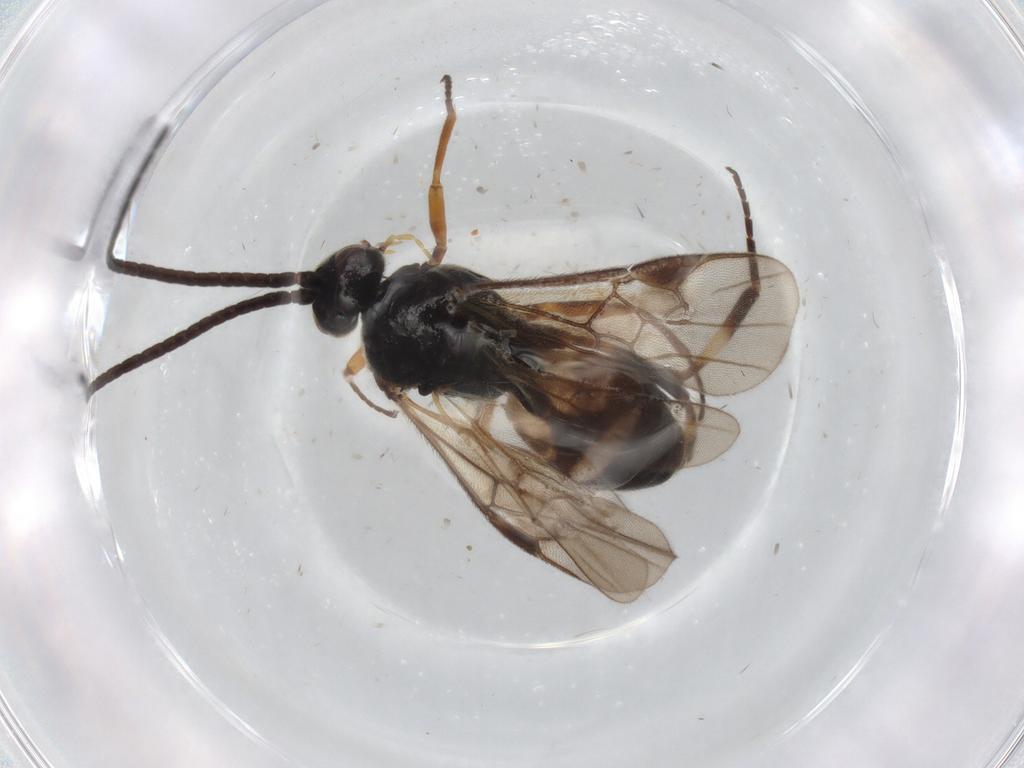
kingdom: Animalia
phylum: Arthropoda
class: Insecta
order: Hymenoptera
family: Braconidae
